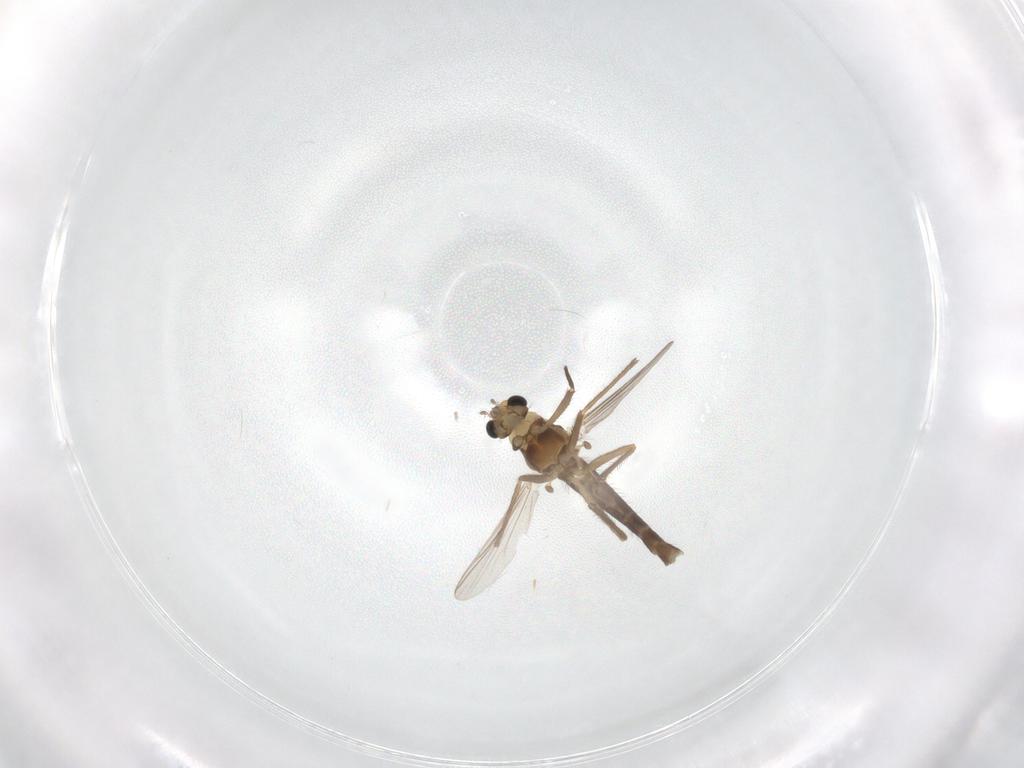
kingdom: Animalia
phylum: Arthropoda
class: Insecta
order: Diptera
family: Chironomidae
